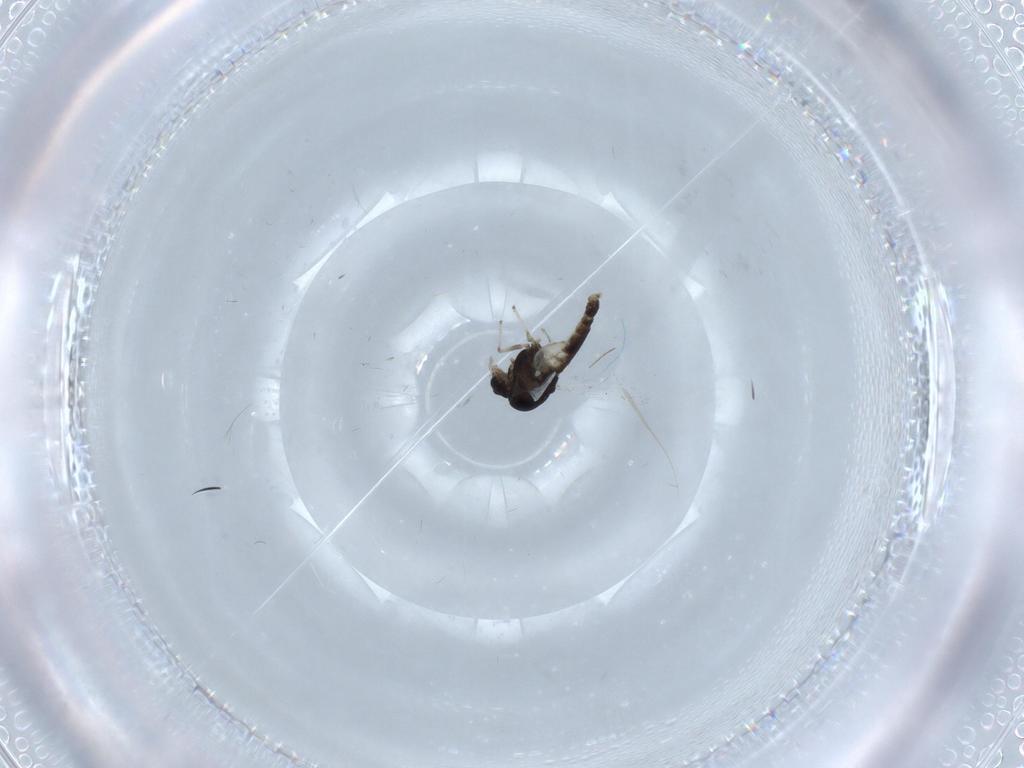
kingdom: Animalia
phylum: Arthropoda
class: Insecta
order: Diptera
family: Chironomidae
